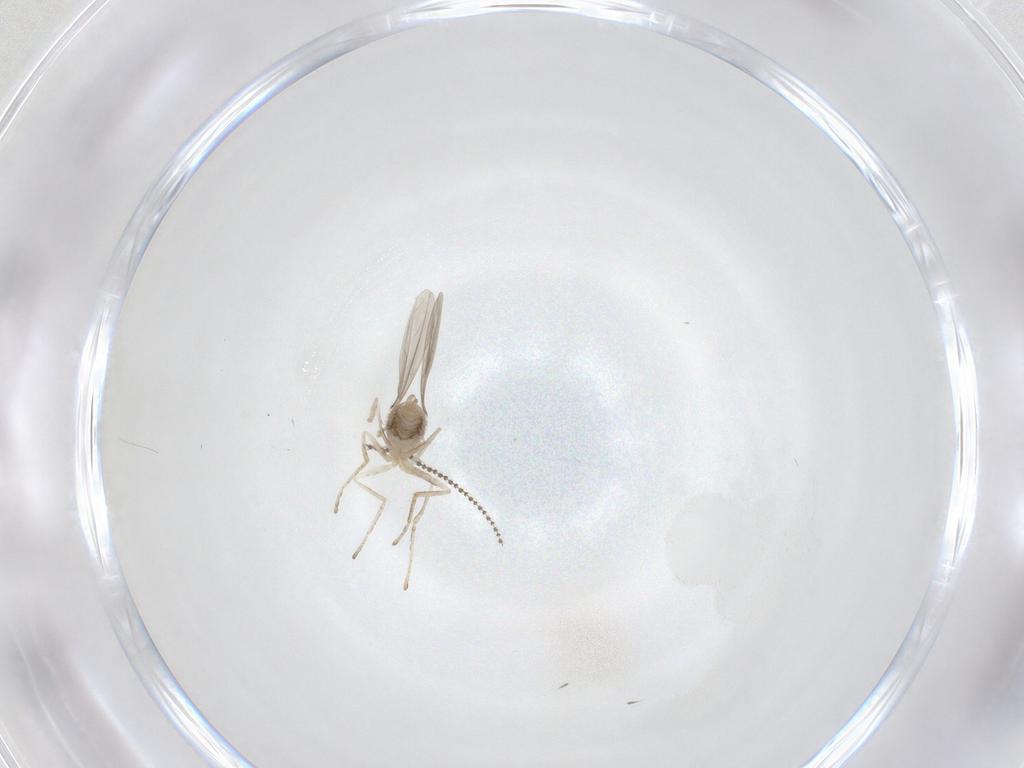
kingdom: Animalia
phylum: Arthropoda
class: Insecta
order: Diptera
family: Cecidomyiidae
